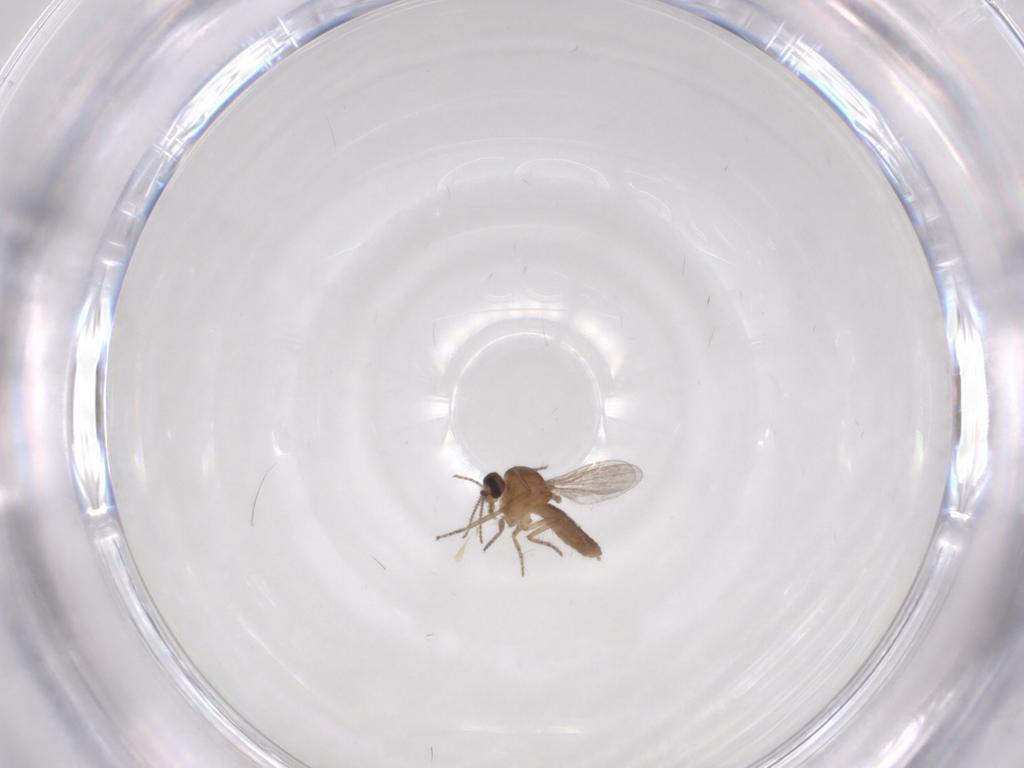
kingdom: Animalia
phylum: Arthropoda
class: Insecta
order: Diptera
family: Ceratopogonidae
